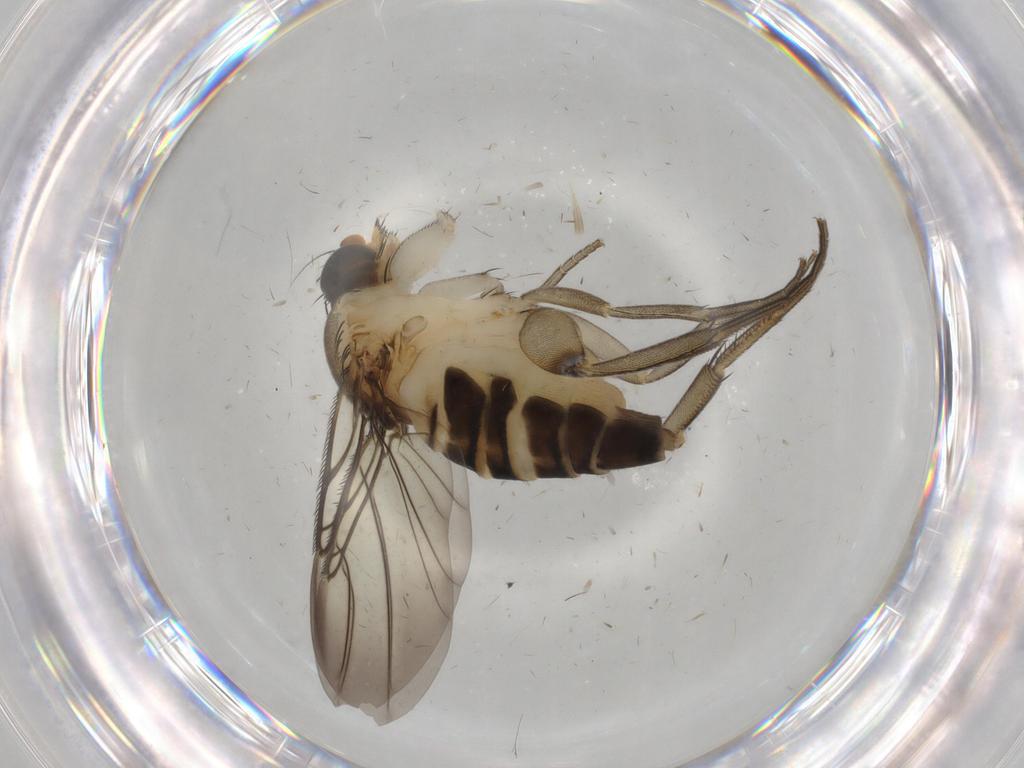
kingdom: Animalia
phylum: Arthropoda
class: Insecta
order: Diptera
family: Sciaridae
